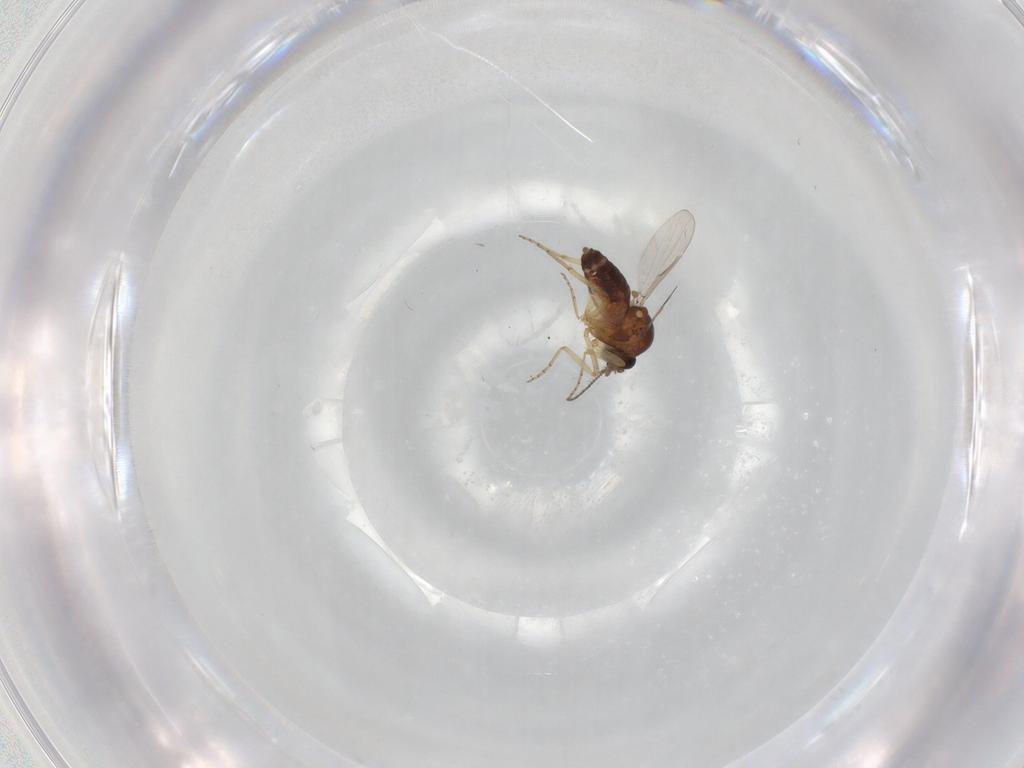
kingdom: Animalia
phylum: Arthropoda
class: Insecta
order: Diptera
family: Ceratopogonidae
